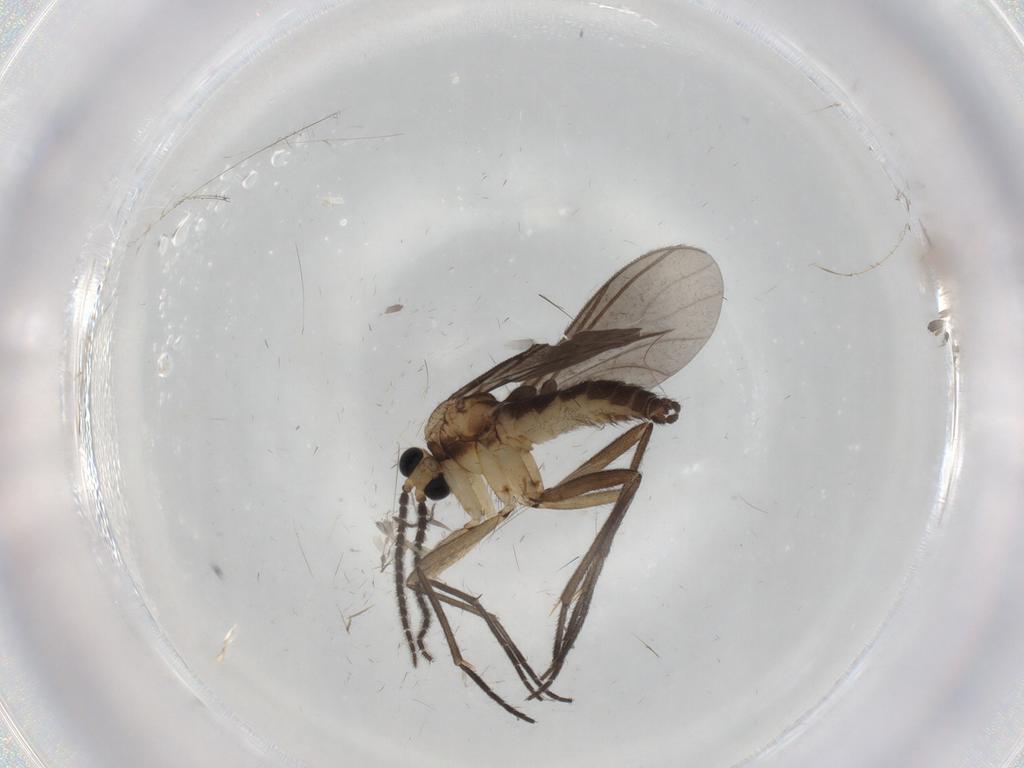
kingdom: Animalia
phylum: Arthropoda
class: Insecta
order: Diptera
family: Sciaridae
